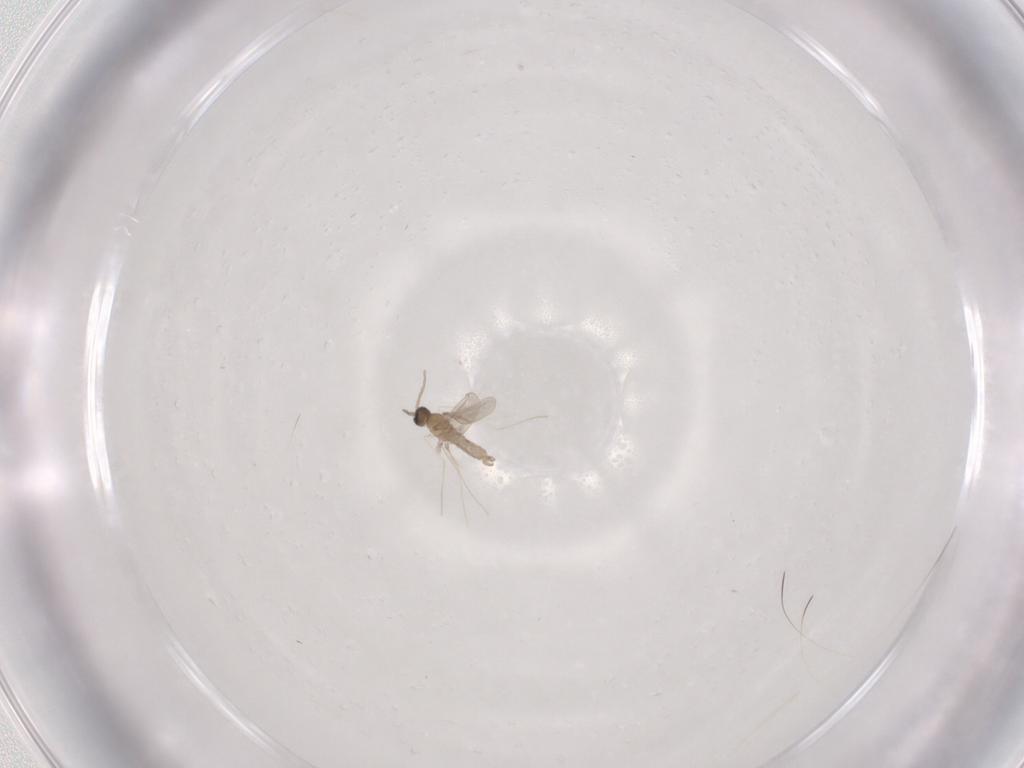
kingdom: Animalia
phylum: Arthropoda
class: Insecta
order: Diptera
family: Cecidomyiidae
